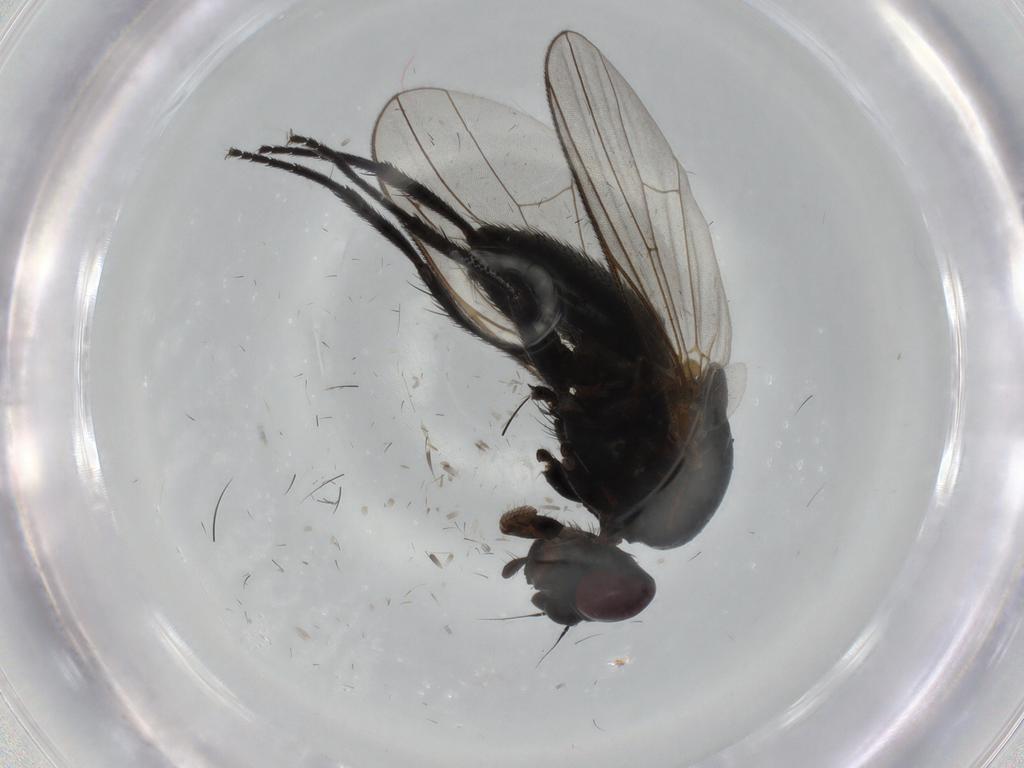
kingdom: Animalia
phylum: Arthropoda
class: Insecta
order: Diptera
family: Fannia
